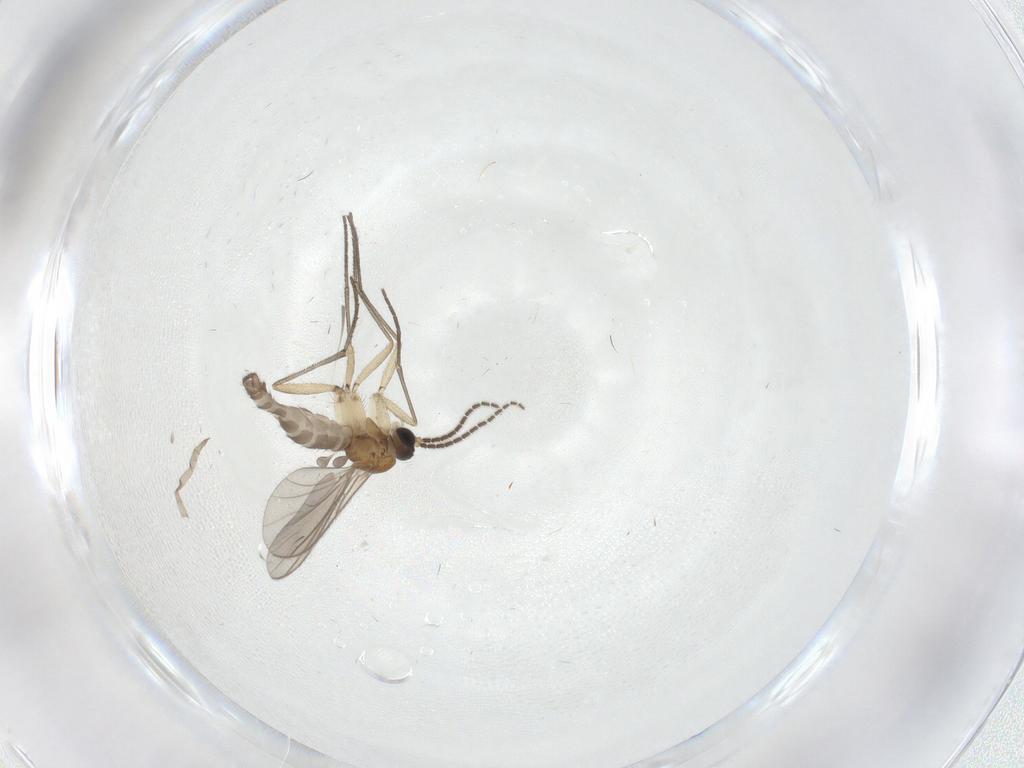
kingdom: Animalia
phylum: Arthropoda
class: Insecta
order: Diptera
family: Sciaridae
